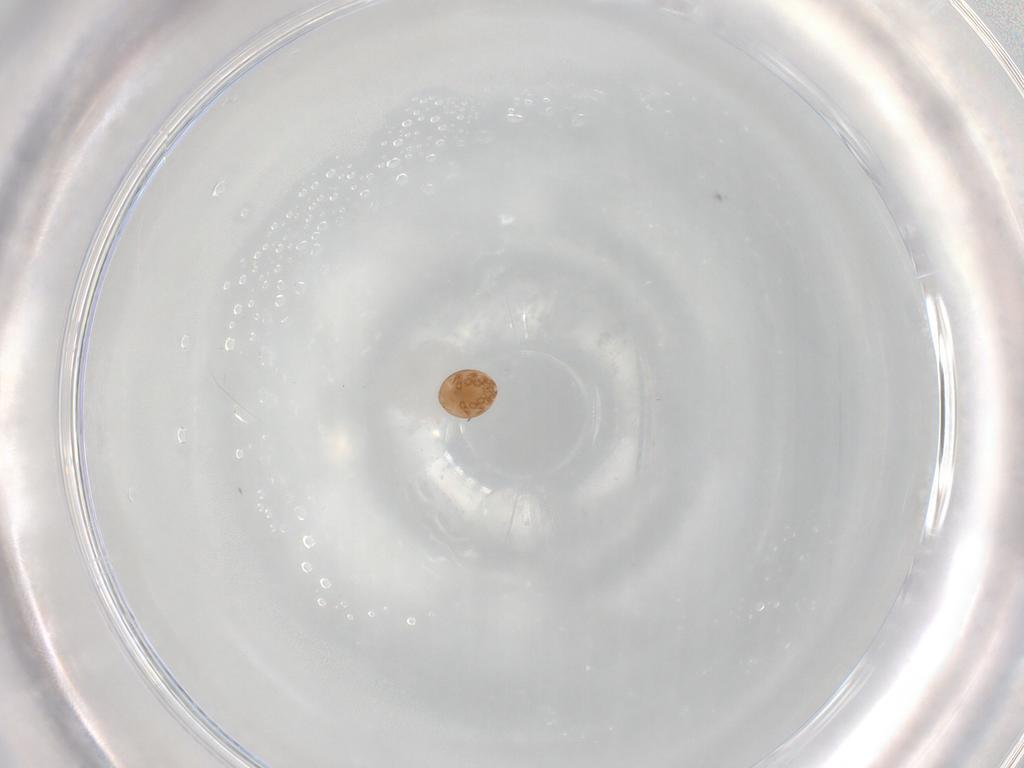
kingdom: Animalia
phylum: Arthropoda
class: Arachnida
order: Mesostigmata
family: Trematuridae
